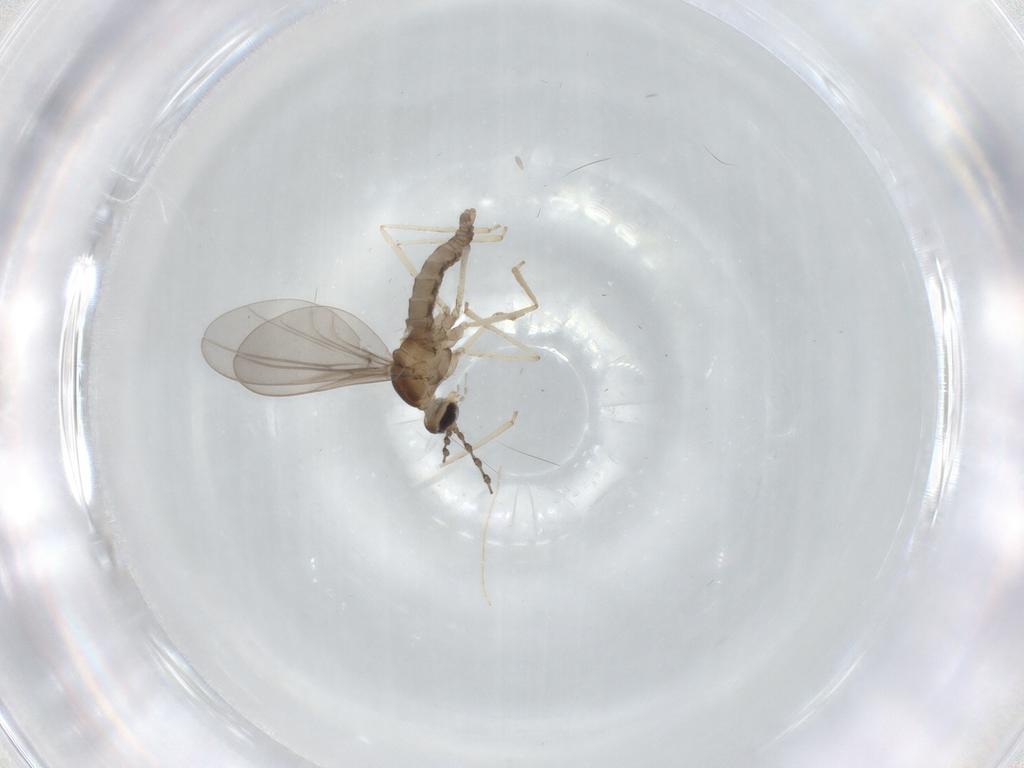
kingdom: Animalia
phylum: Arthropoda
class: Insecta
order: Diptera
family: Cecidomyiidae
